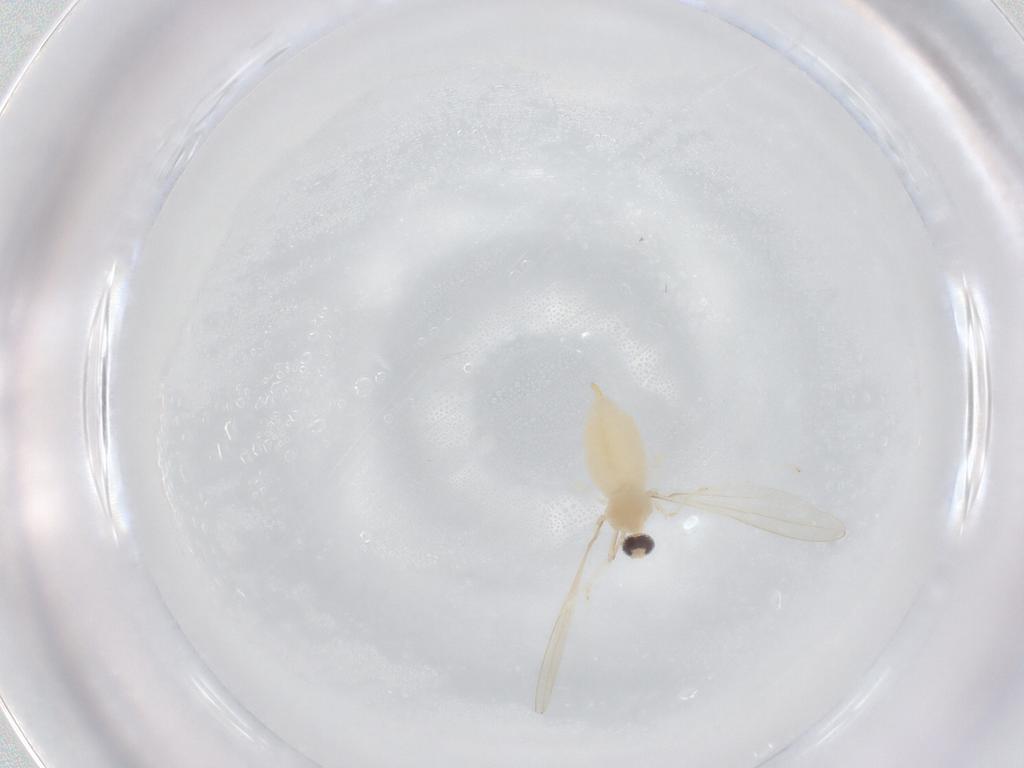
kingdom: Animalia
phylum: Arthropoda
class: Insecta
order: Diptera
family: Cecidomyiidae
